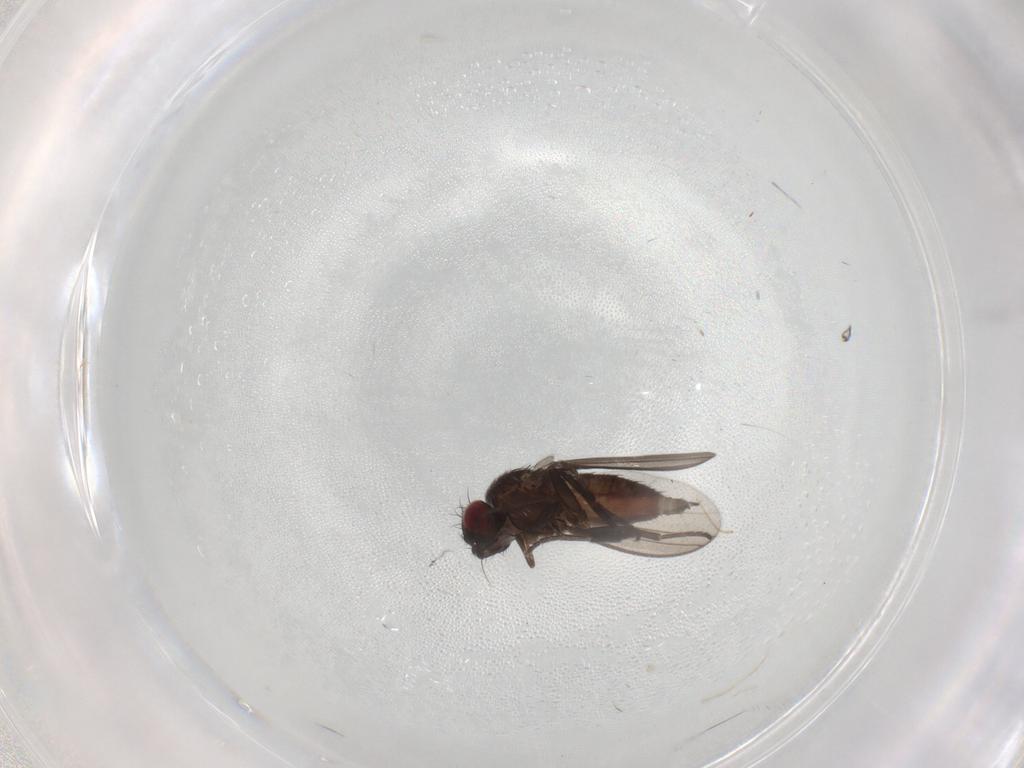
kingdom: Animalia
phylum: Arthropoda
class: Insecta
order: Diptera
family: Milichiidae
